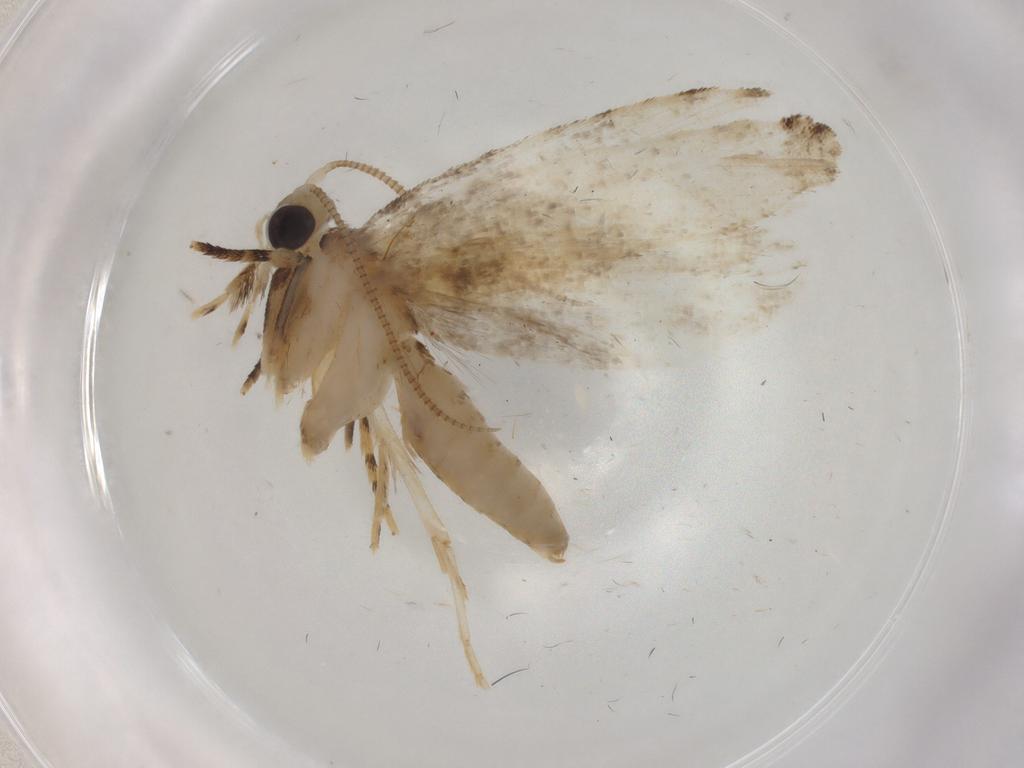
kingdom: Animalia
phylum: Arthropoda
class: Insecta
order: Lepidoptera
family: Tineidae
